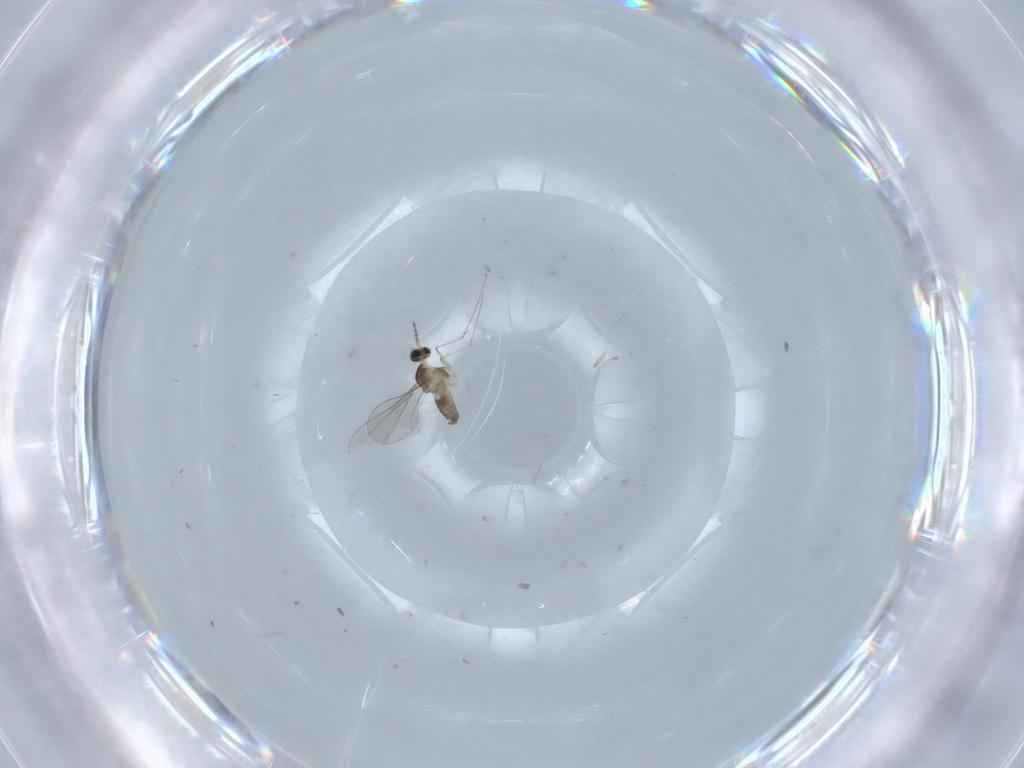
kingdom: Animalia
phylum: Arthropoda
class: Insecta
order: Diptera
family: Cecidomyiidae
